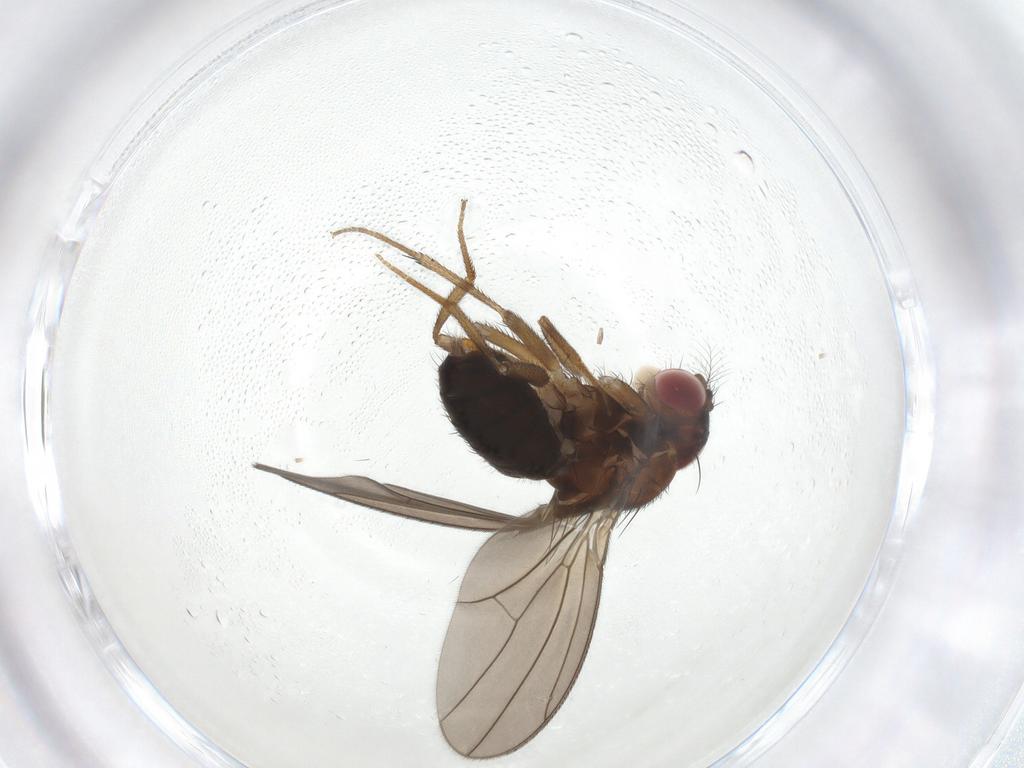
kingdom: Animalia
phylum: Arthropoda
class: Insecta
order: Diptera
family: Drosophilidae
